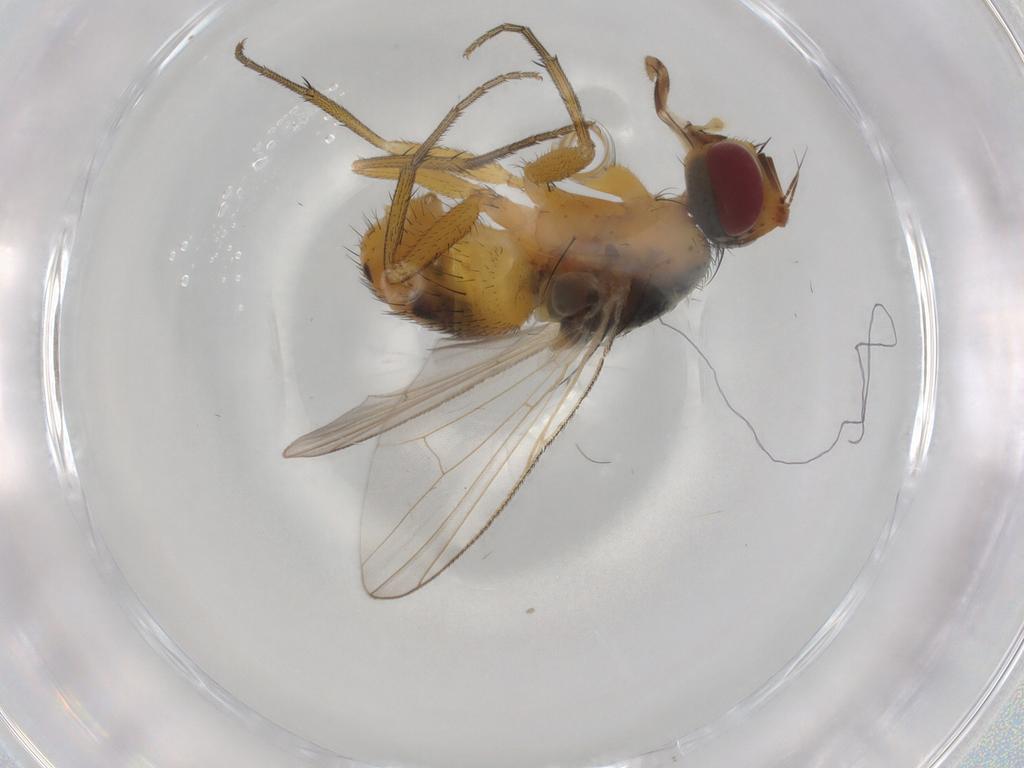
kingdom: Animalia
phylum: Arthropoda
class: Insecta
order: Diptera
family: Muscidae
